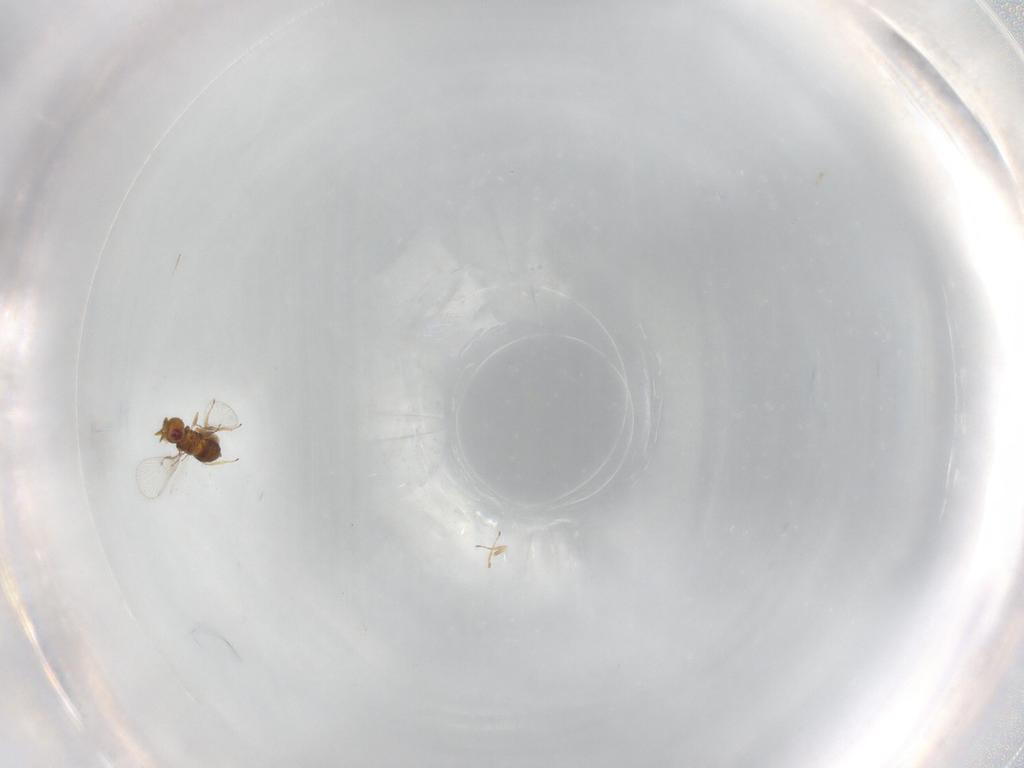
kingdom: Animalia
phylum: Arthropoda
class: Insecta
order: Hymenoptera
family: Trichogrammatidae
